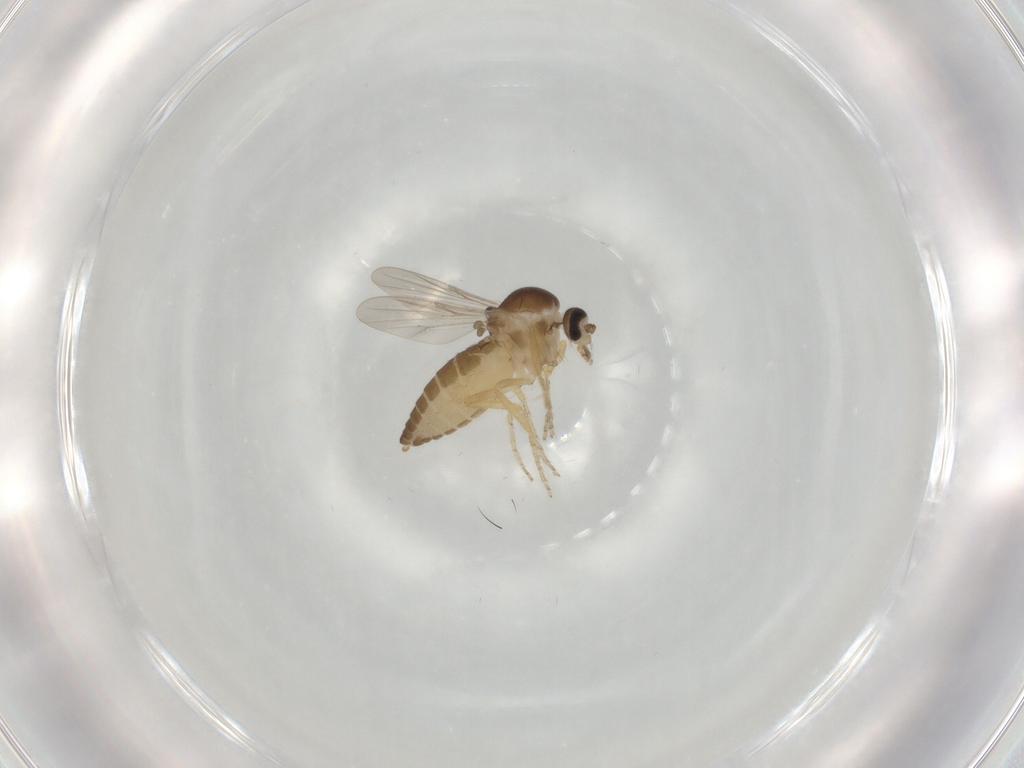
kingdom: Animalia
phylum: Arthropoda
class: Insecta
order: Diptera
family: Ceratopogonidae
